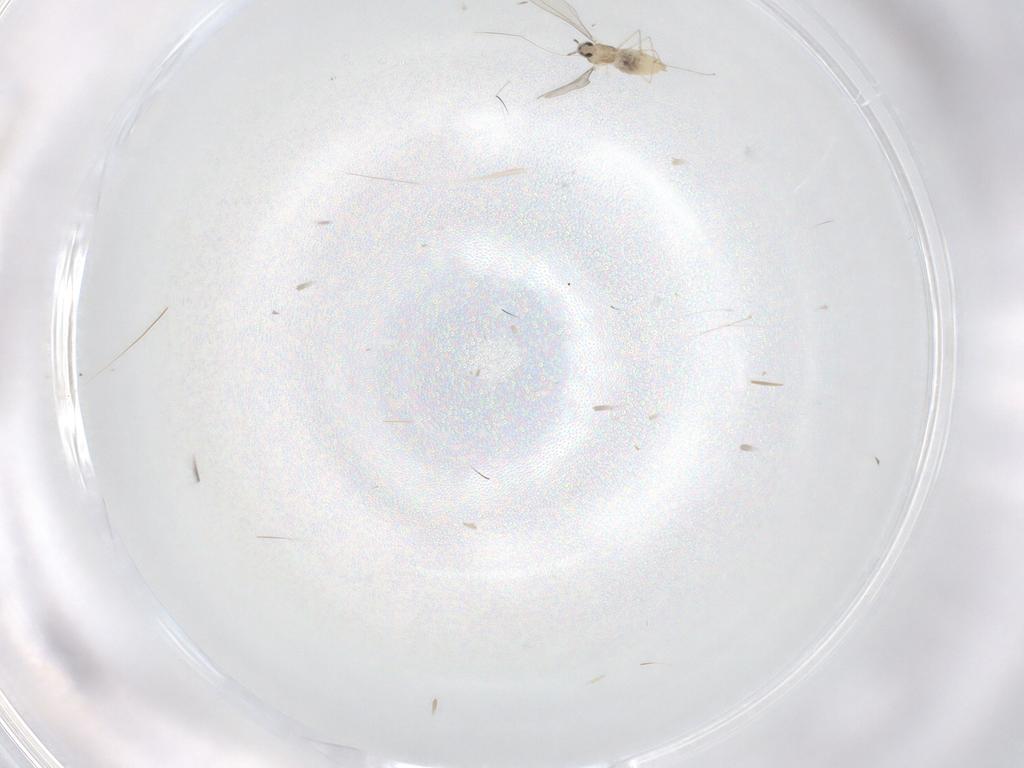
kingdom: Animalia
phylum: Arthropoda
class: Insecta
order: Diptera
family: Cecidomyiidae
